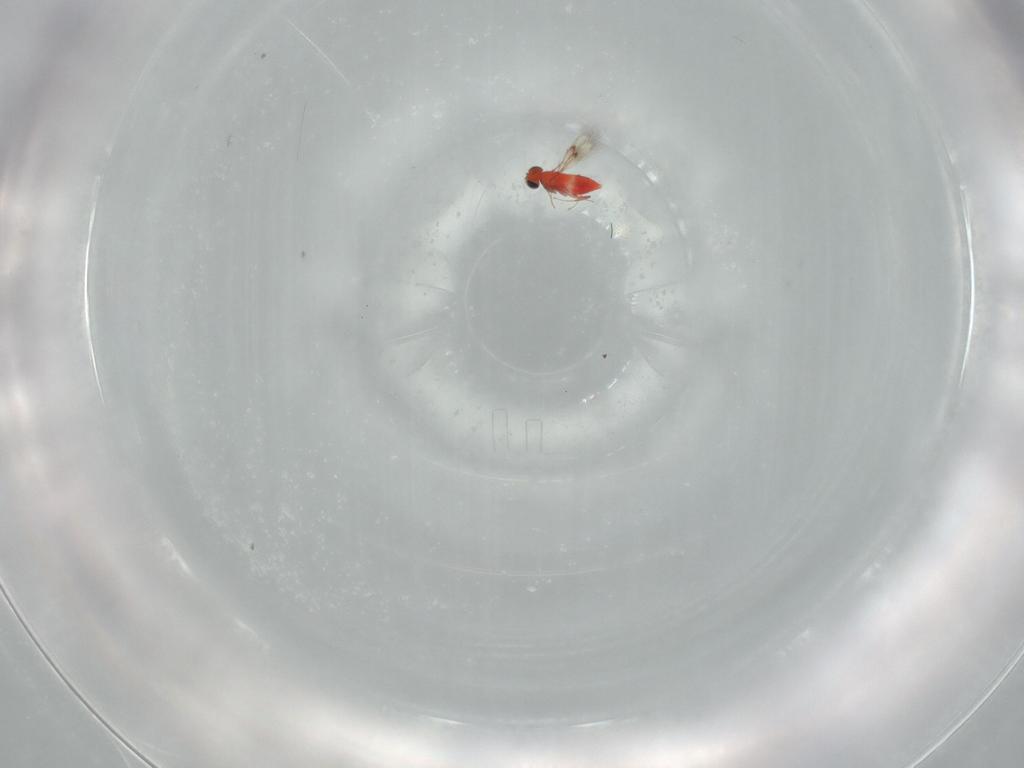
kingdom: Animalia
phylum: Arthropoda
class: Insecta
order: Hymenoptera
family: Trichogrammatidae
